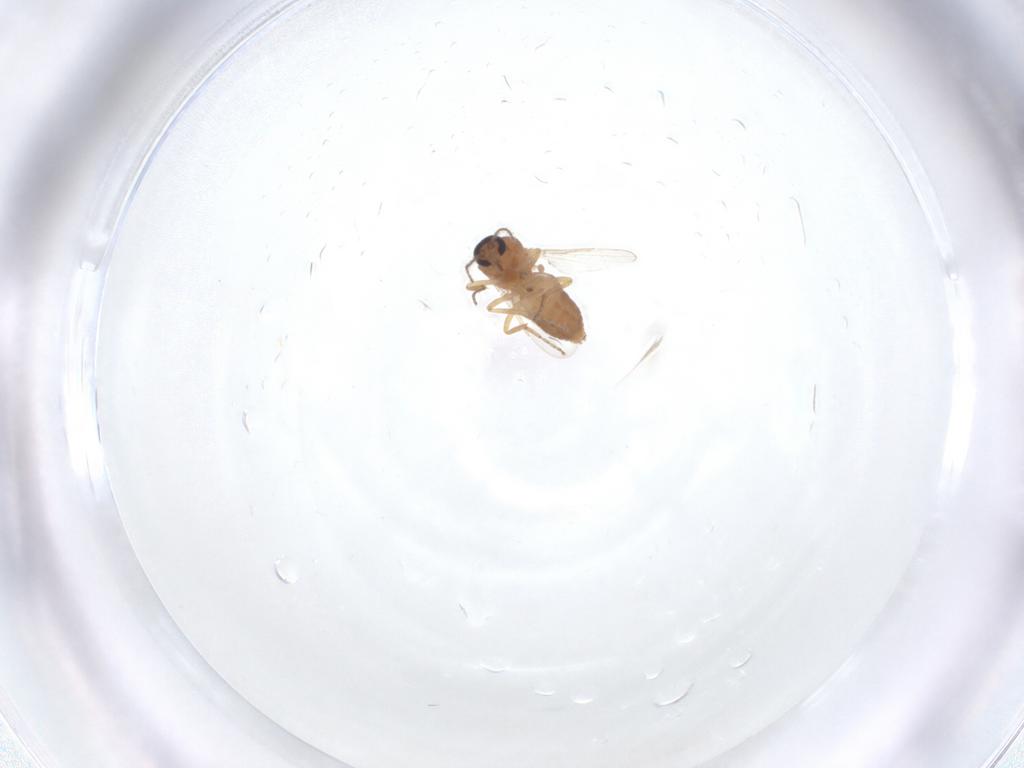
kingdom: Animalia
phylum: Arthropoda
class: Insecta
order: Diptera
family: Ceratopogonidae
